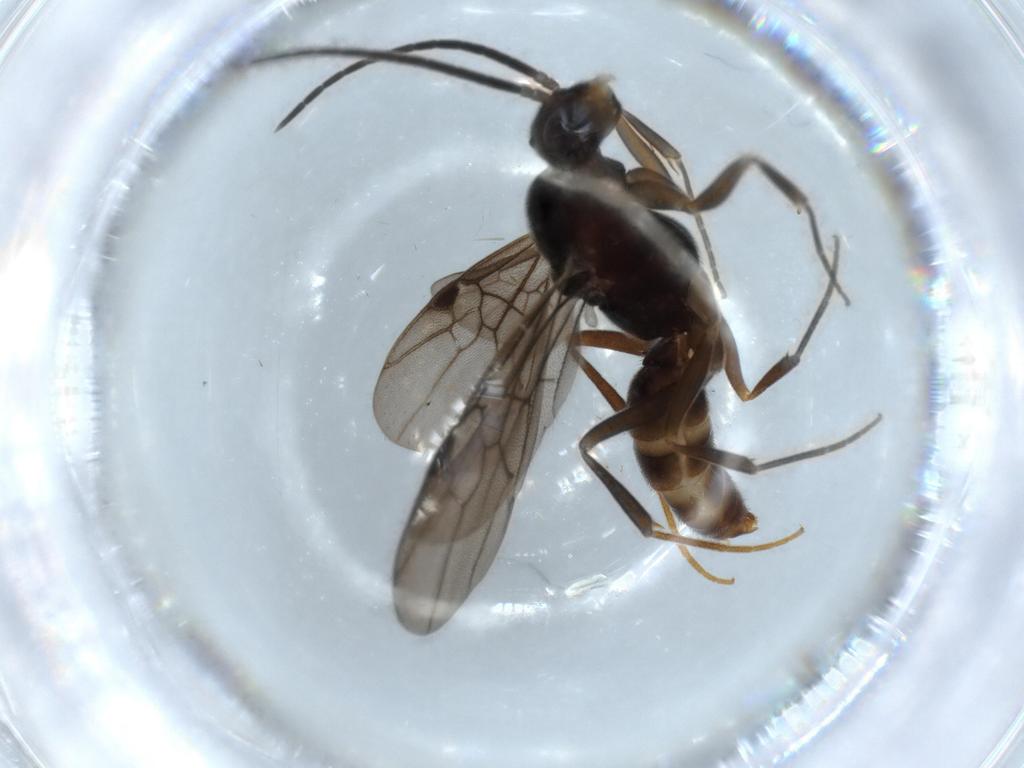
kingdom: Animalia
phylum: Arthropoda
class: Insecta
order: Hymenoptera
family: Formicidae
